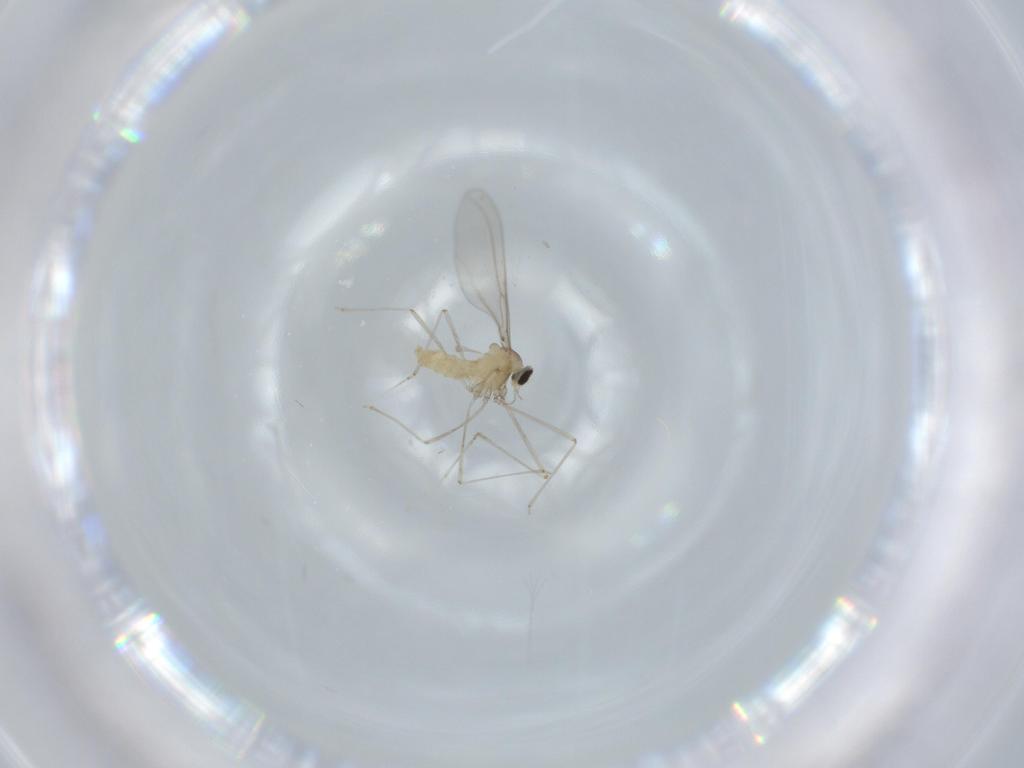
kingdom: Animalia
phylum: Arthropoda
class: Insecta
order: Diptera
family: Cecidomyiidae
